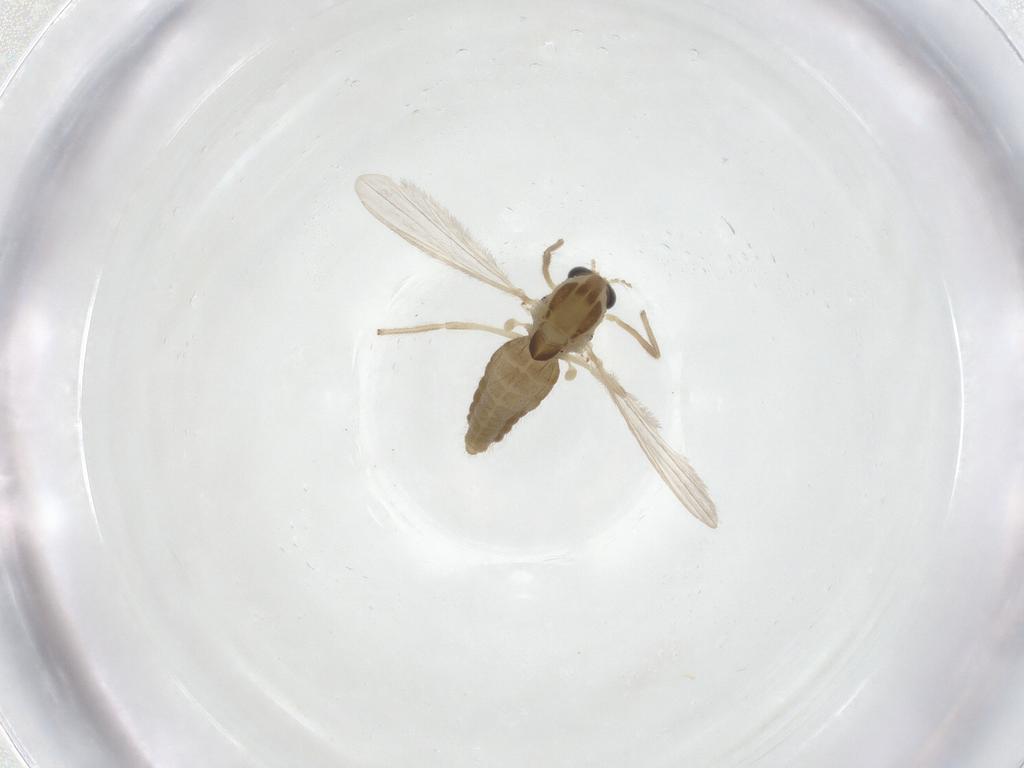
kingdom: Animalia
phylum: Arthropoda
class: Insecta
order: Diptera
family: Chironomidae
